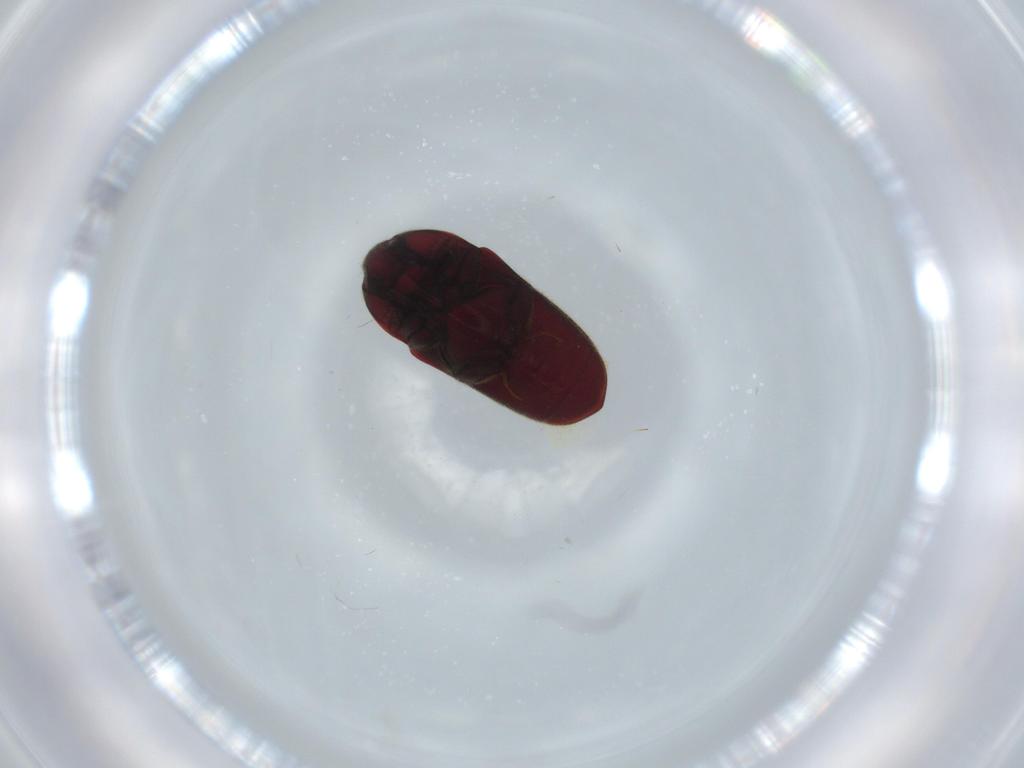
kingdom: Animalia
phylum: Arthropoda
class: Insecta
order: Coleoptera
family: Throscidae
